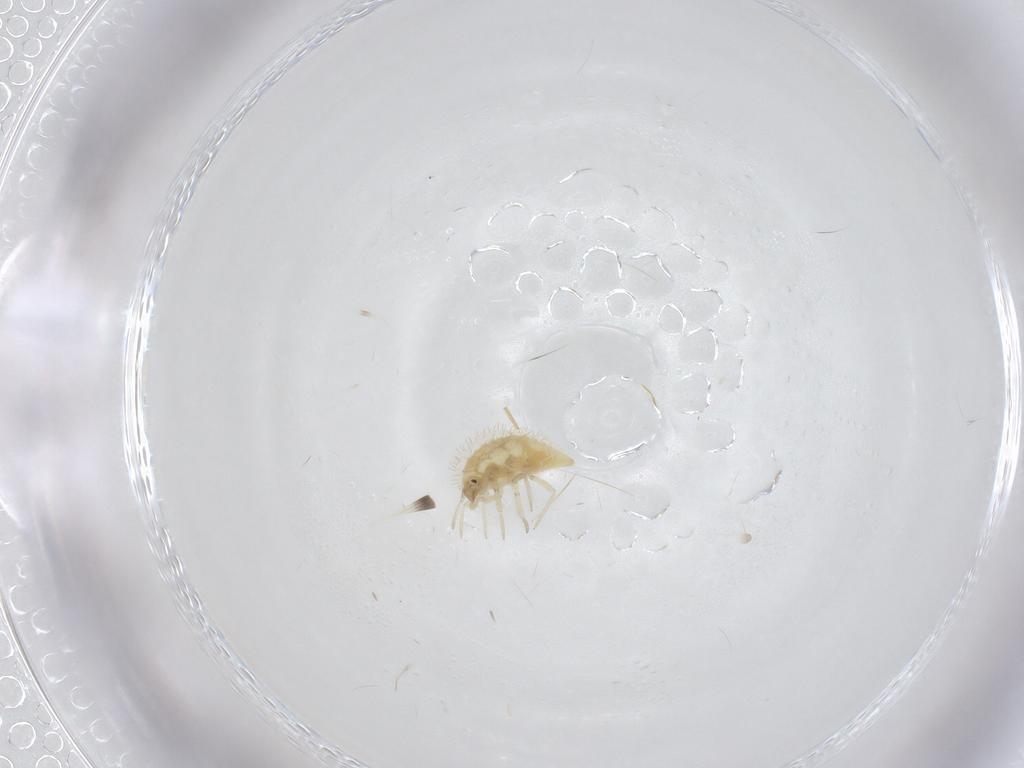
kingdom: Animalia
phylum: Arthropoda
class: Insecta
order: Neuroptera
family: Coniopterygidae
